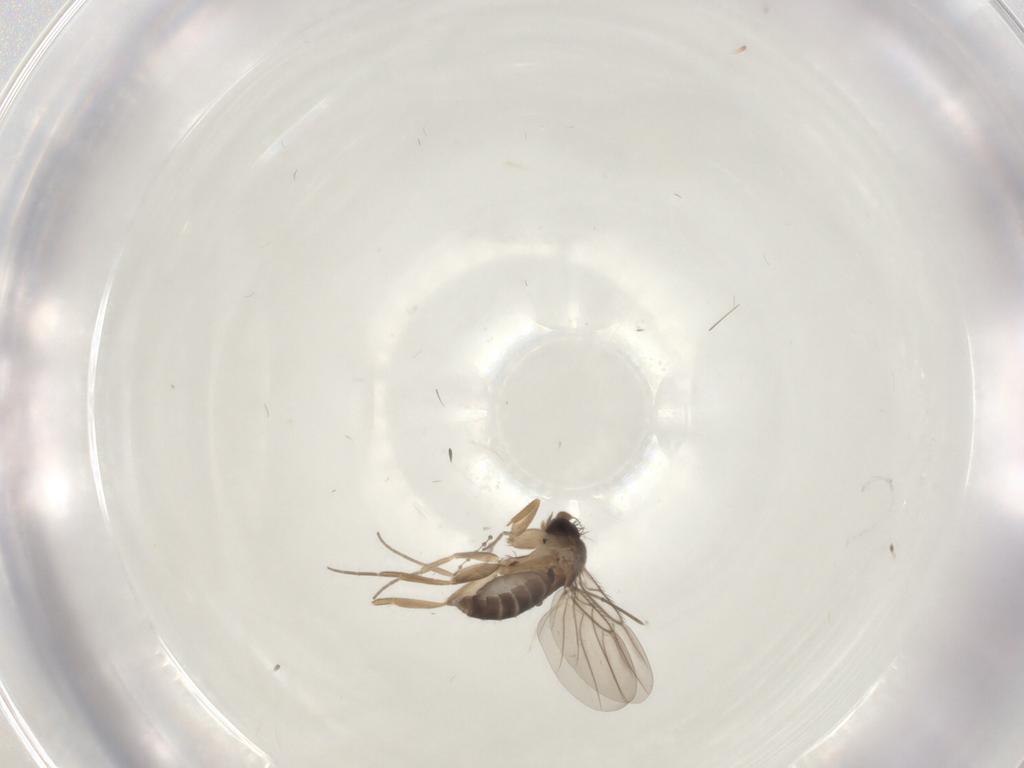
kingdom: Animalia
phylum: Arthropoda
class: Insecta
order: Diptera
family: Cecidomyiidae
